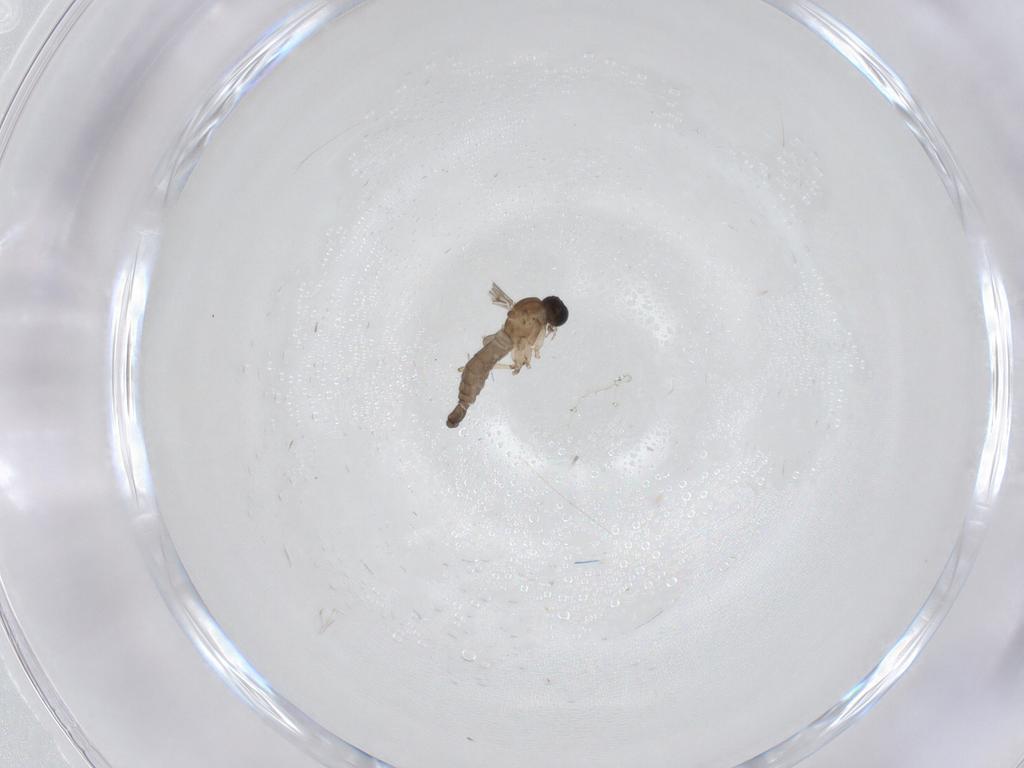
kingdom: Animalia
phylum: Arthropoda
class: Insecta
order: Diptera
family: Sciaridae
